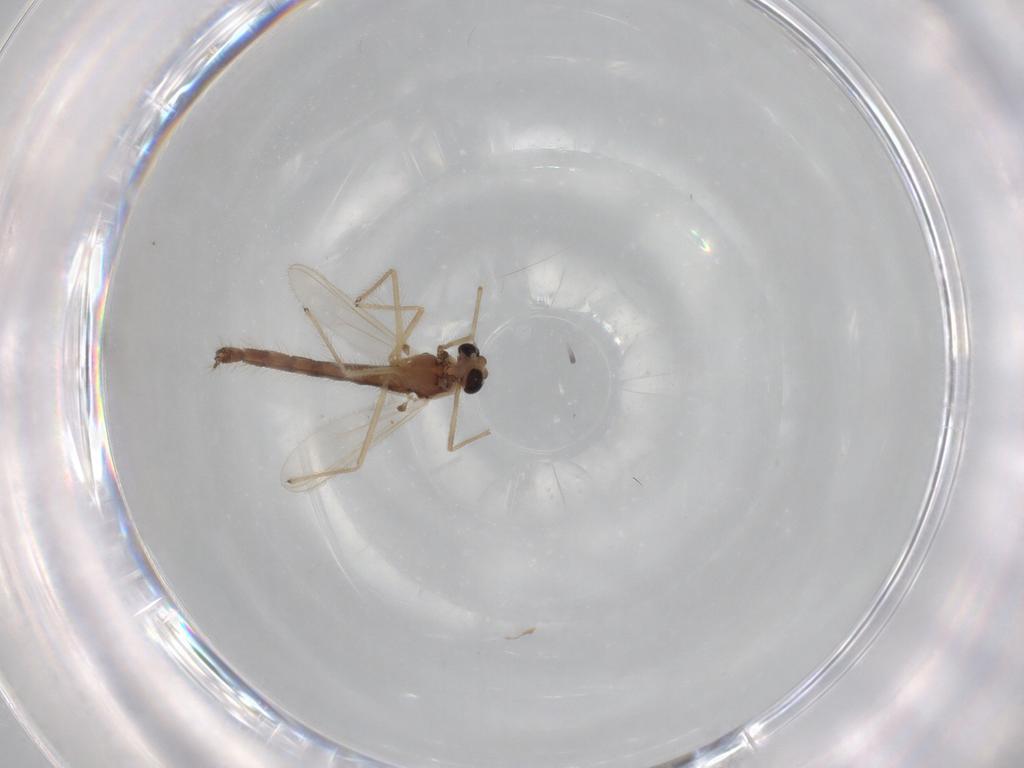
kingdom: Animalia
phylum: Arthropoda
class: Insecta
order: Diptera
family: Chironomidae
